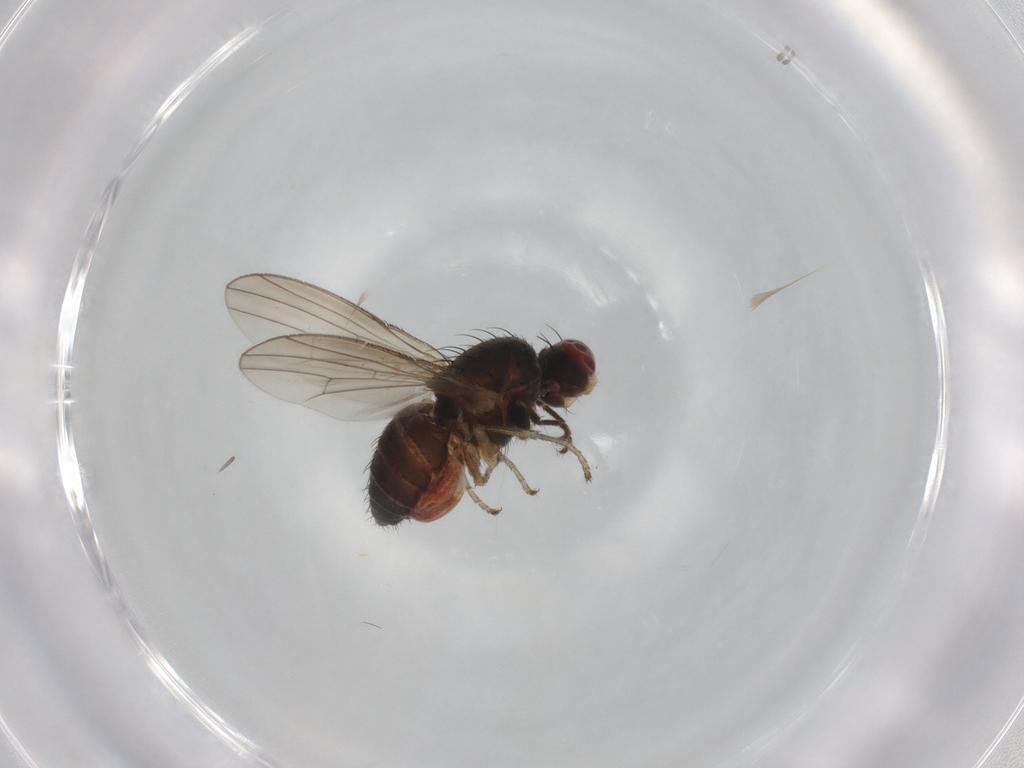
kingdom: Animalia
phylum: Arthropoda
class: Insecta
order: Diptera
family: Heleomyzidae
